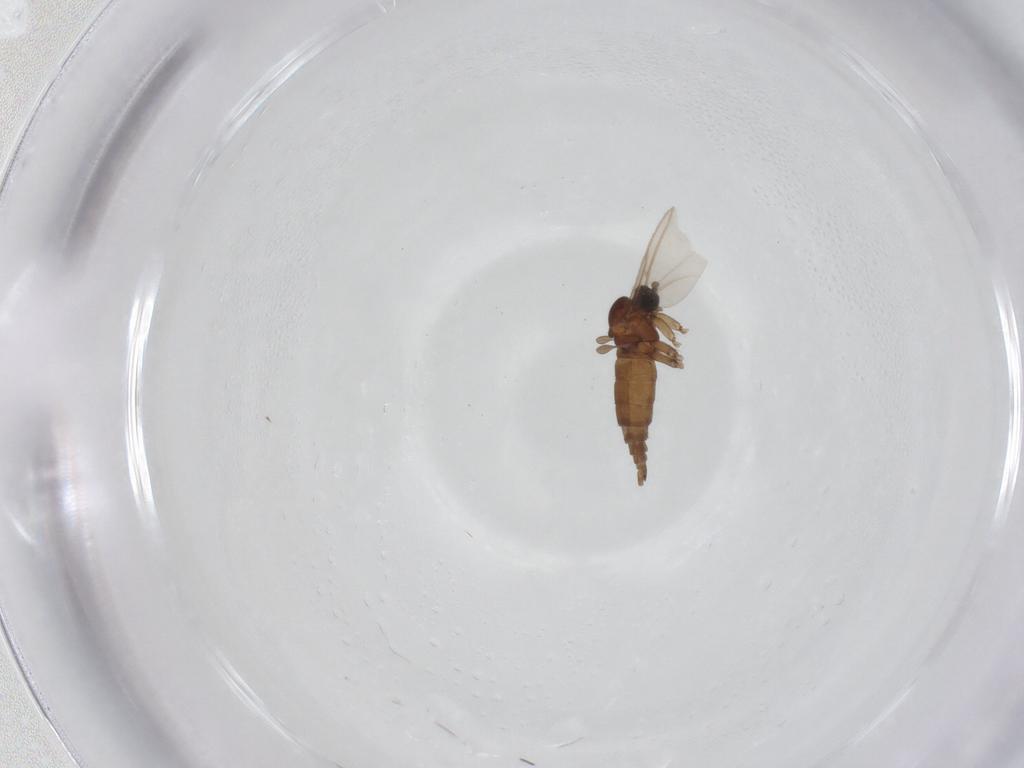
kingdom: Animalia
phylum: Arthropoda
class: Insecta
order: Diptera
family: Sciaridae
